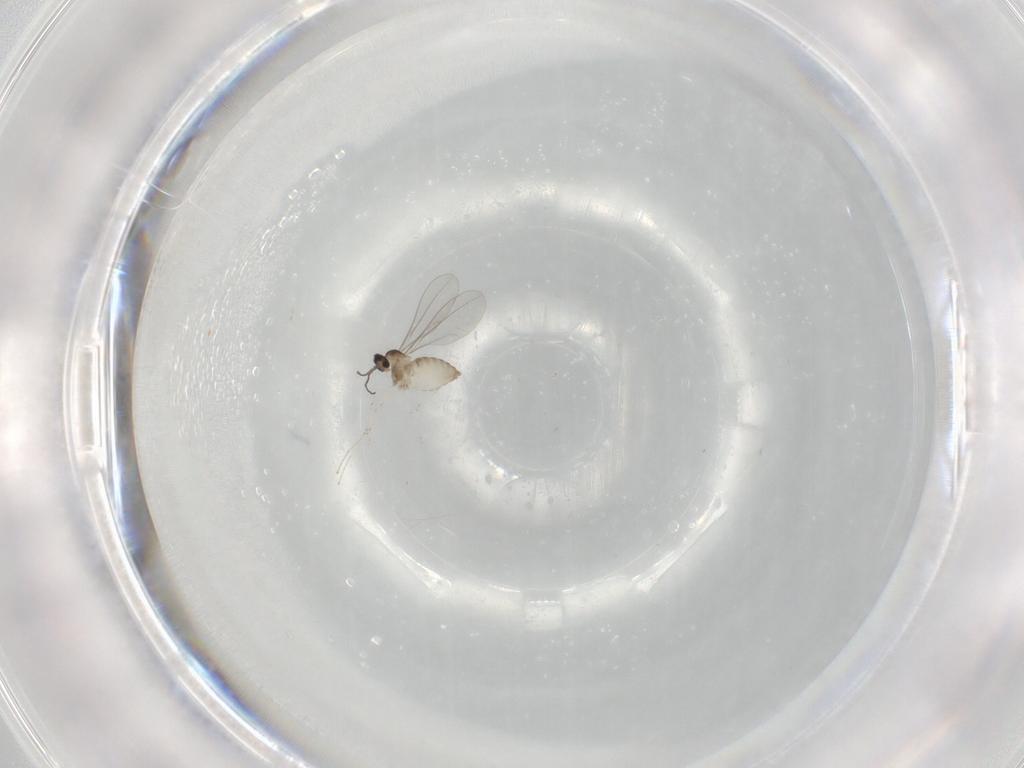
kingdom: Animalia
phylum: Arthropoda
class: Insecta
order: Diptera
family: Cecidomyiidae
